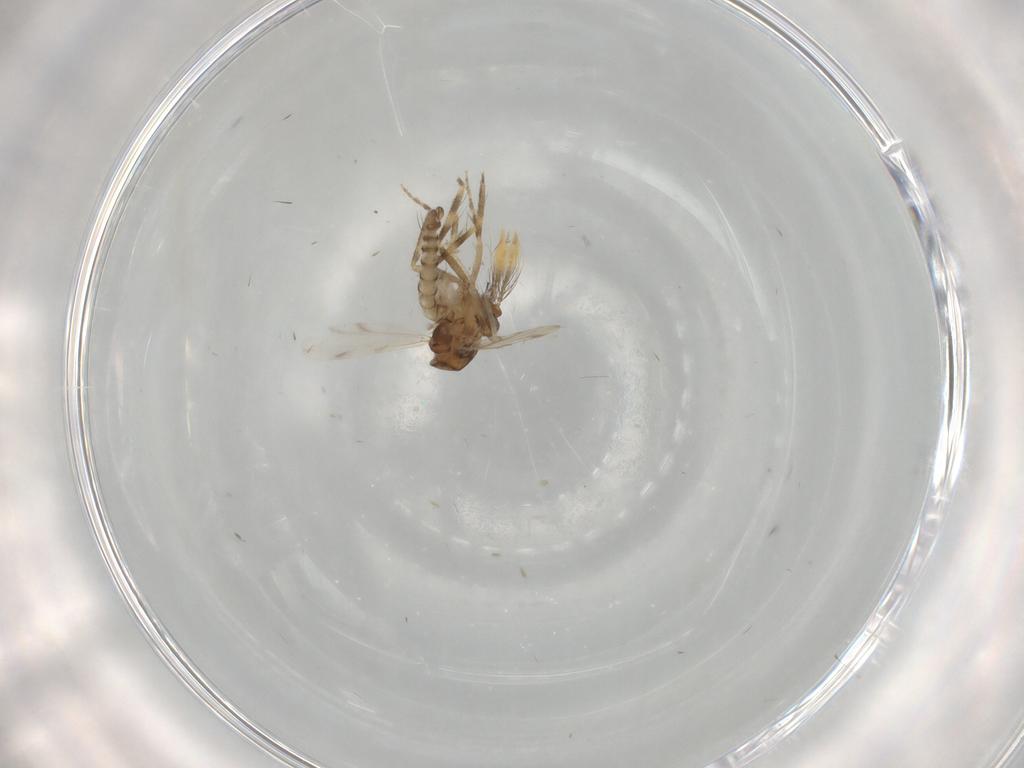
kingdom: Animalia
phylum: Arthropoda
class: Insecta
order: Diptera
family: Ceratopogonidae
